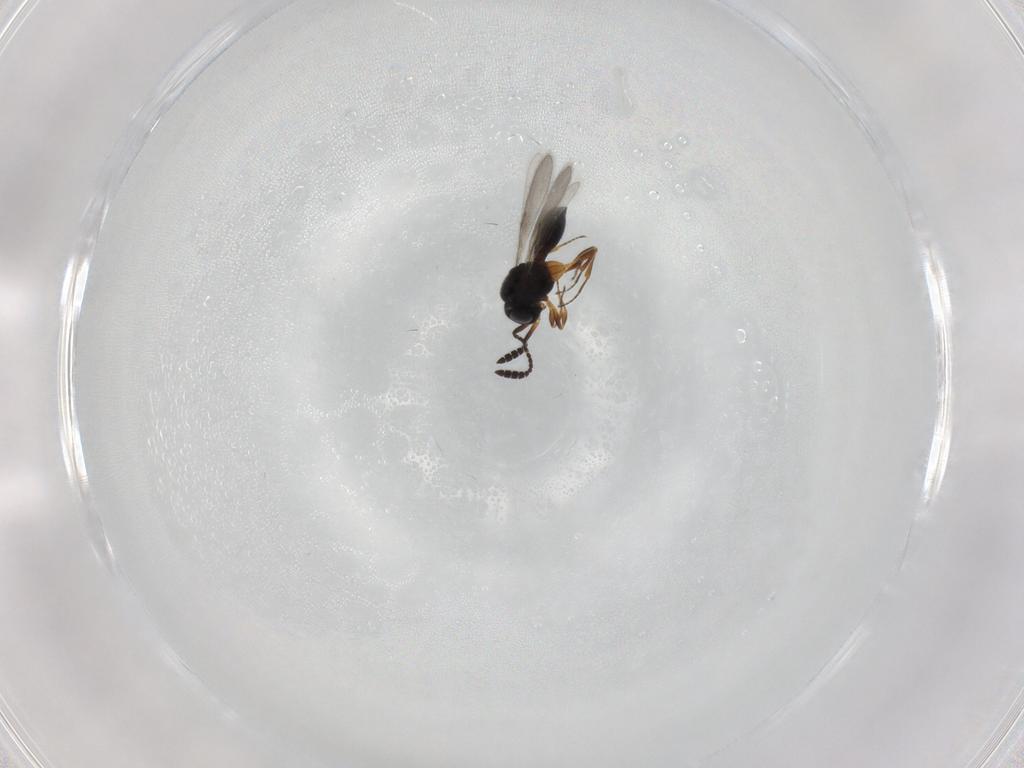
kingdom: Animalia
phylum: Arthropoda
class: Insecta
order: Hymenoptera
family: Scelionidae
